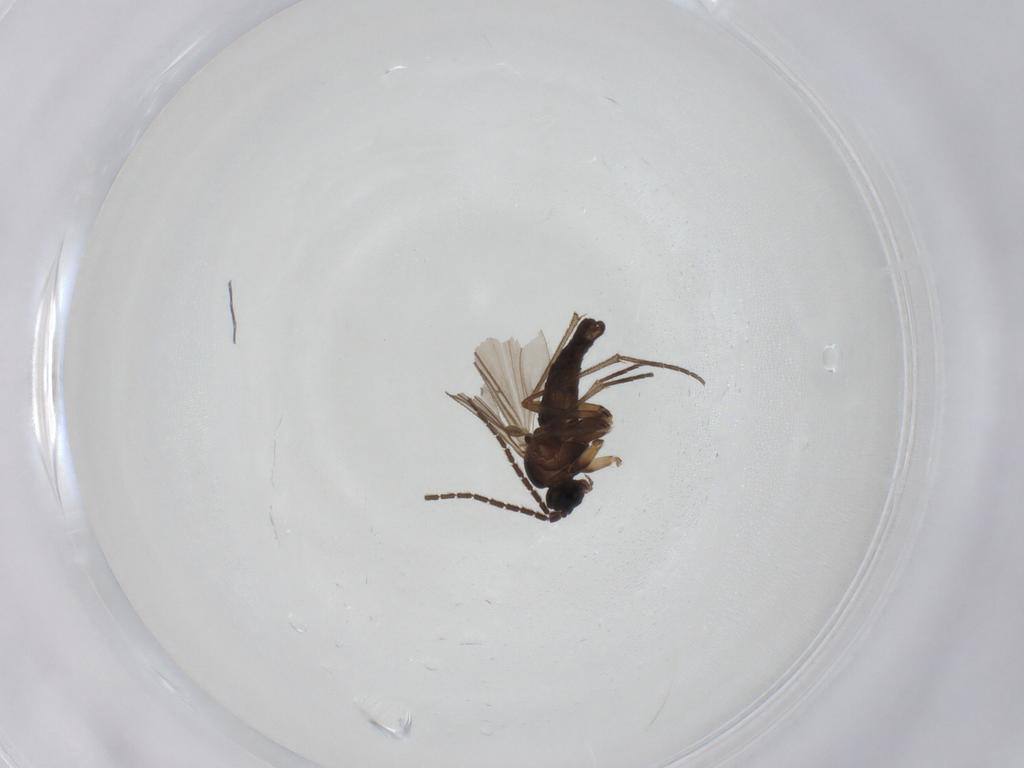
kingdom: Animalia
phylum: Arthropoda
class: Insecta
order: Diptera
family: Sciaridae
